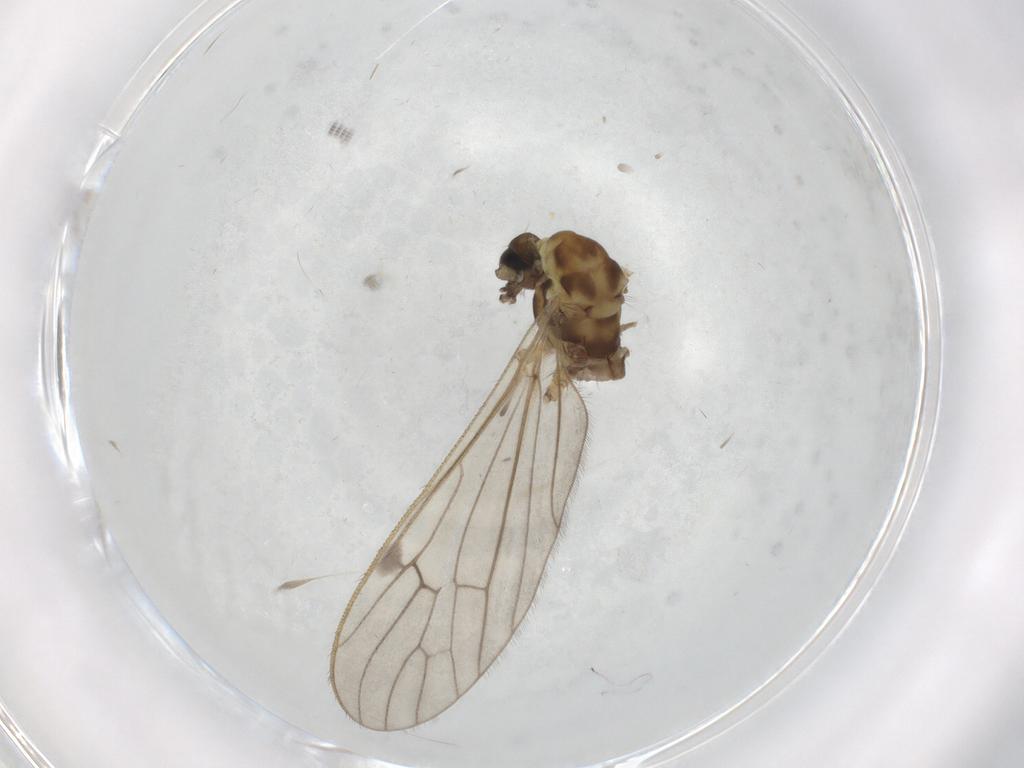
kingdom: Animalia
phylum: Arthropoda
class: Insecta
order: Diptera
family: Limoniidae
